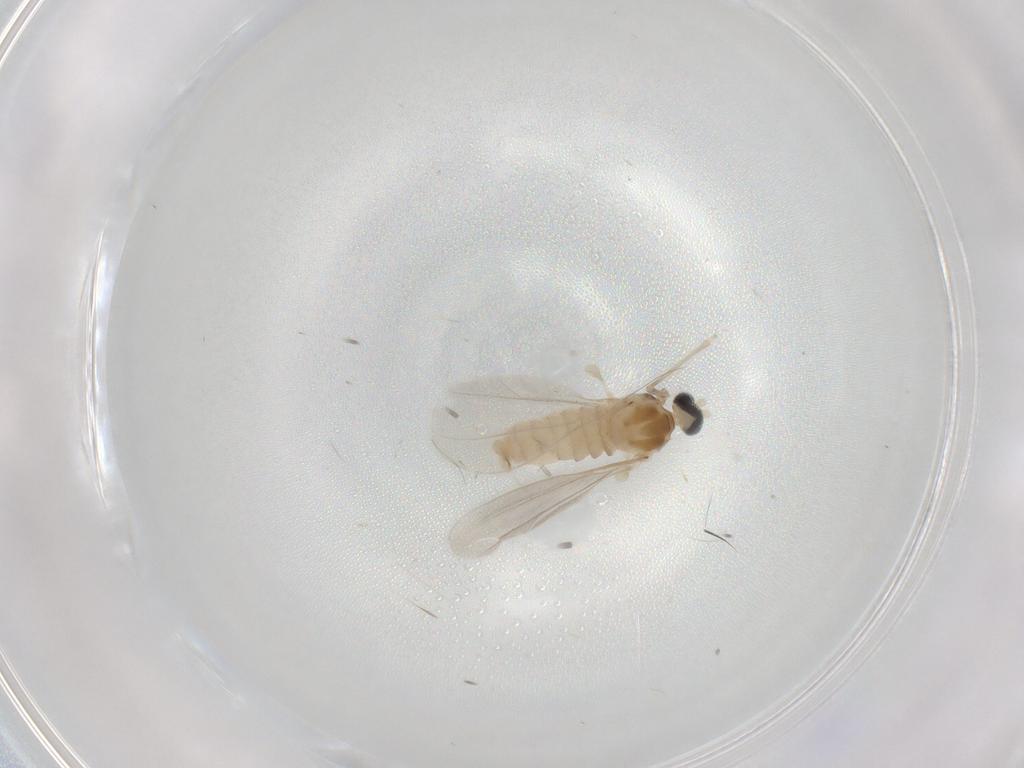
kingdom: Animalia
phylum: Arthropoda
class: Insecta
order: Diptera
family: Cecidomyiidae
